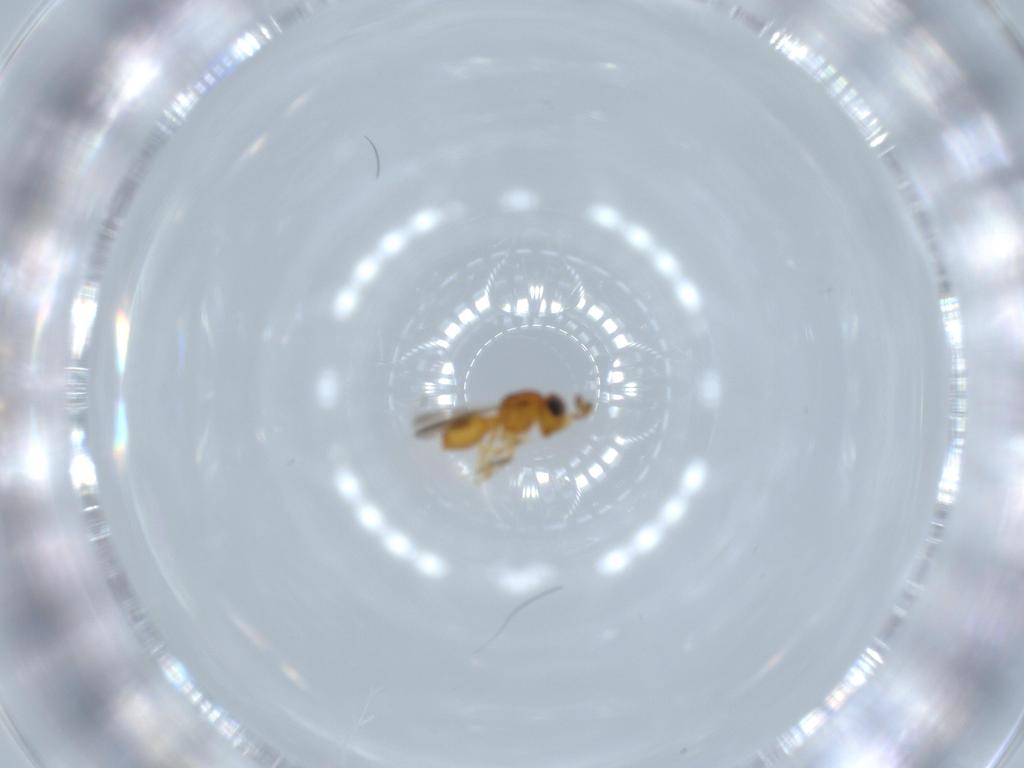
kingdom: Animalia
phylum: Arthropoda
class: Insecta
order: Hymenoptera
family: Scelionidae
